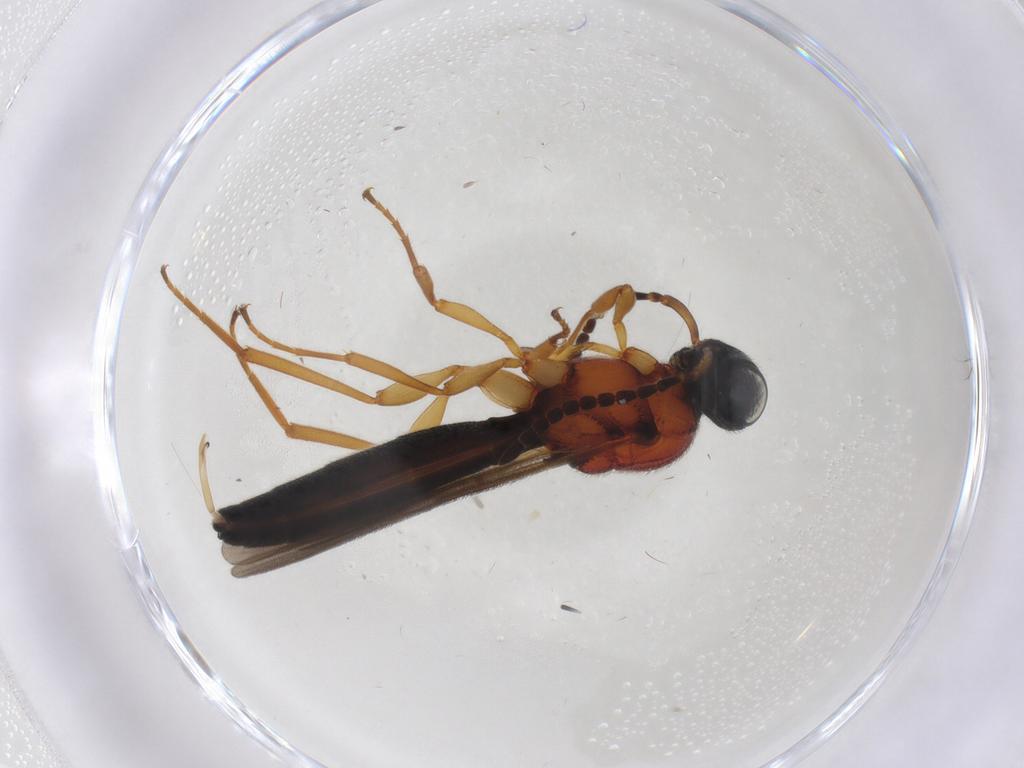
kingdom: Animalia
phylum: Arthropoda
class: Insecta
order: Hymenoptera
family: Scelionidae
